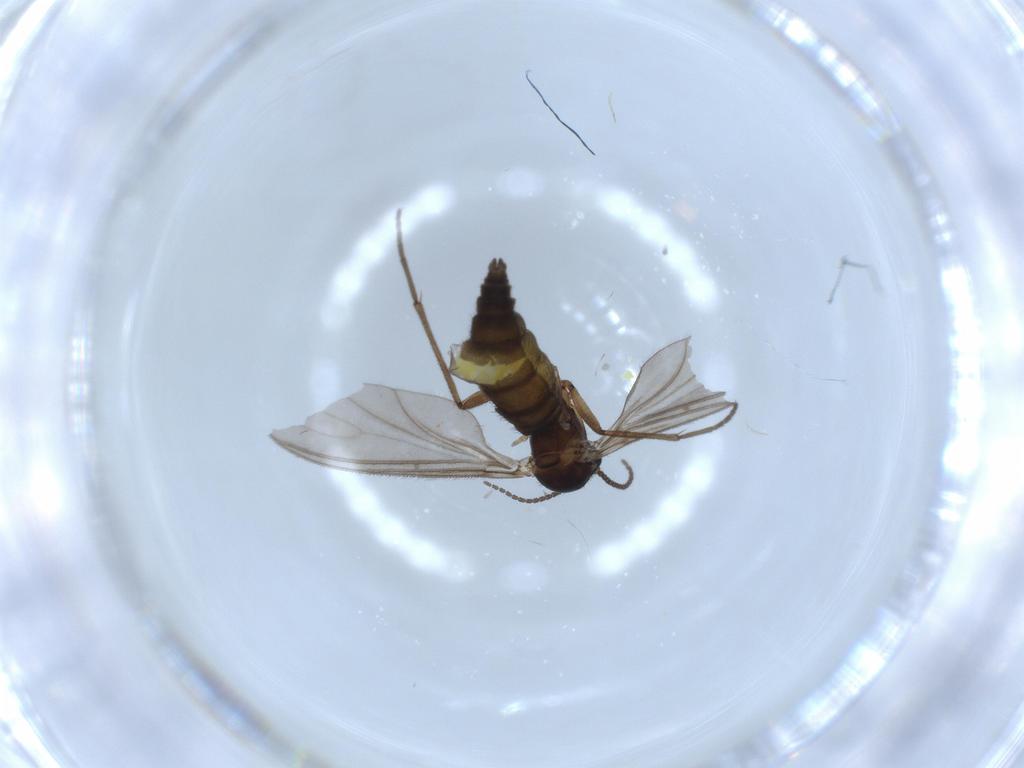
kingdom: Animalia
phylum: Arthropoda
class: Insecta
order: Diptera
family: Sciaridae
